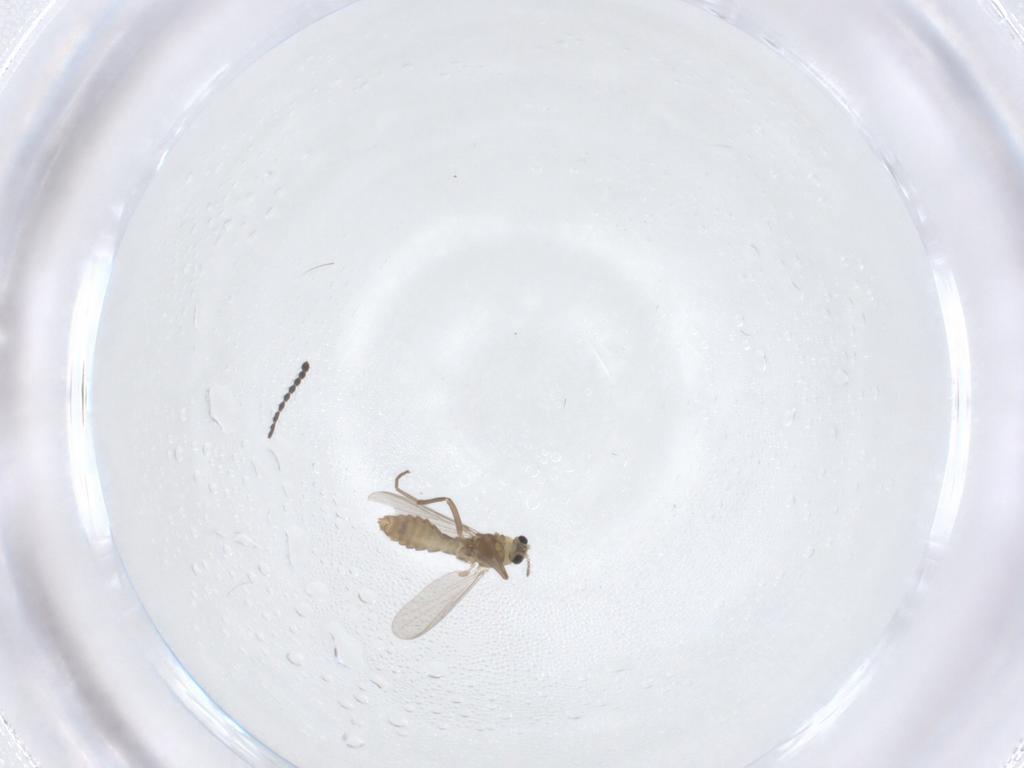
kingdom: Animalia
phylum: Arthropoda
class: Insecta
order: Diptera
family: Chironomidae
